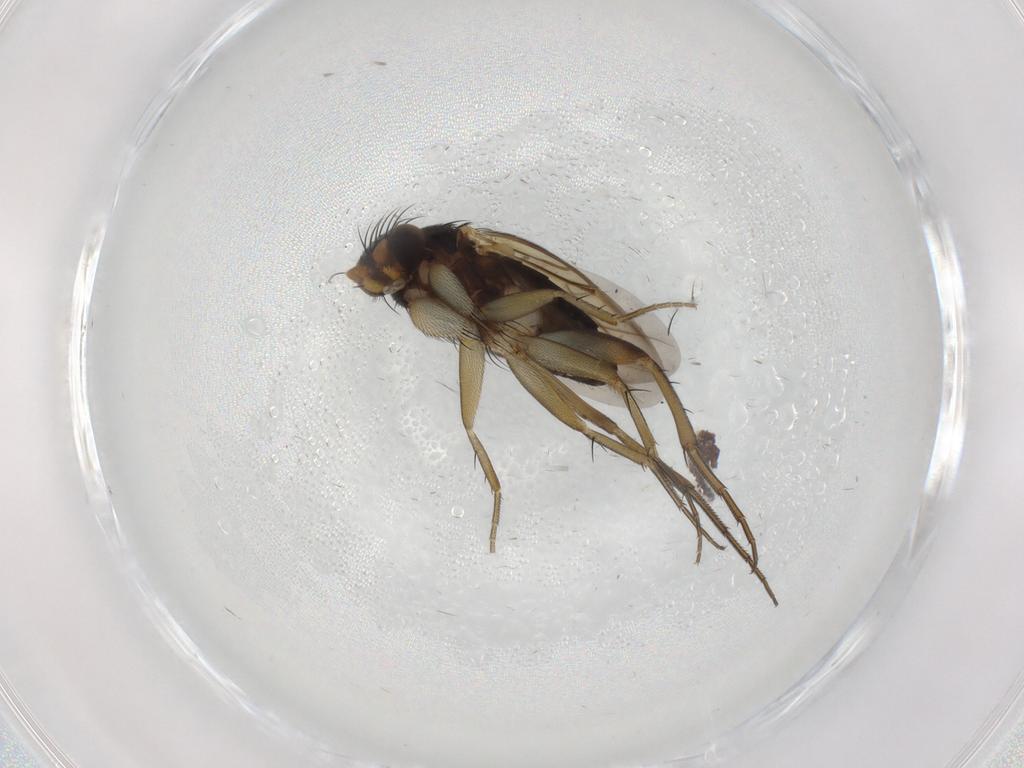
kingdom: Animalia
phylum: Arthropoda
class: Insecta
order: Diptera
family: Phoridae
